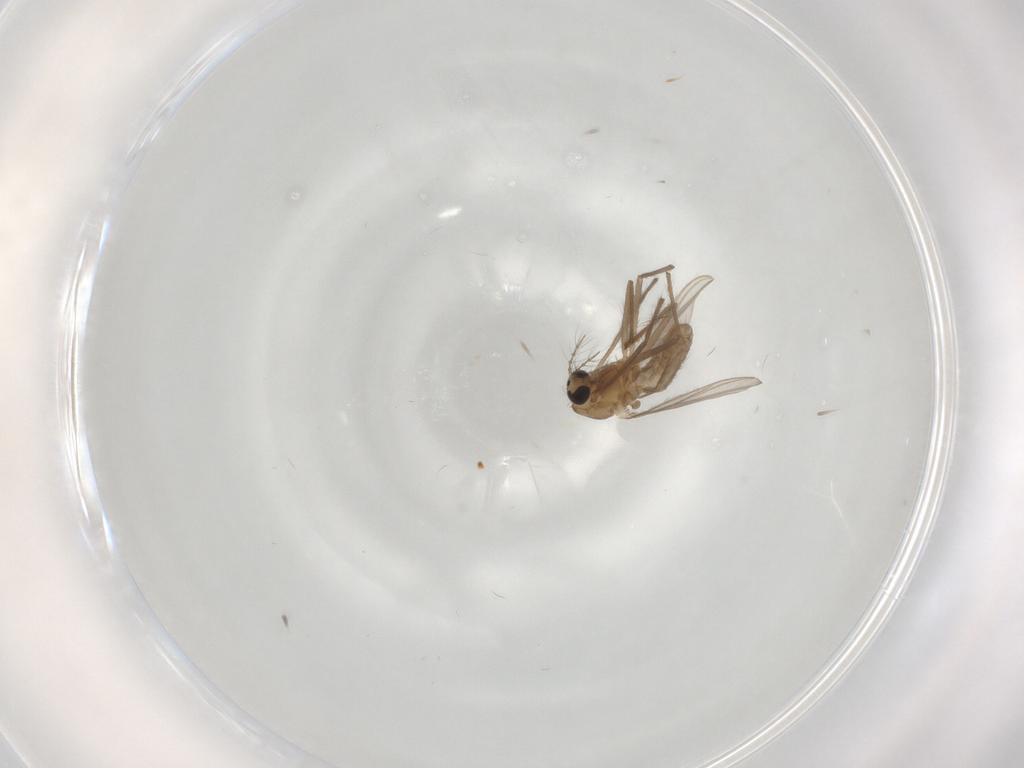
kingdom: Animalia
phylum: Arthropoda
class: Insecta
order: Diptera
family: Chironomidae
